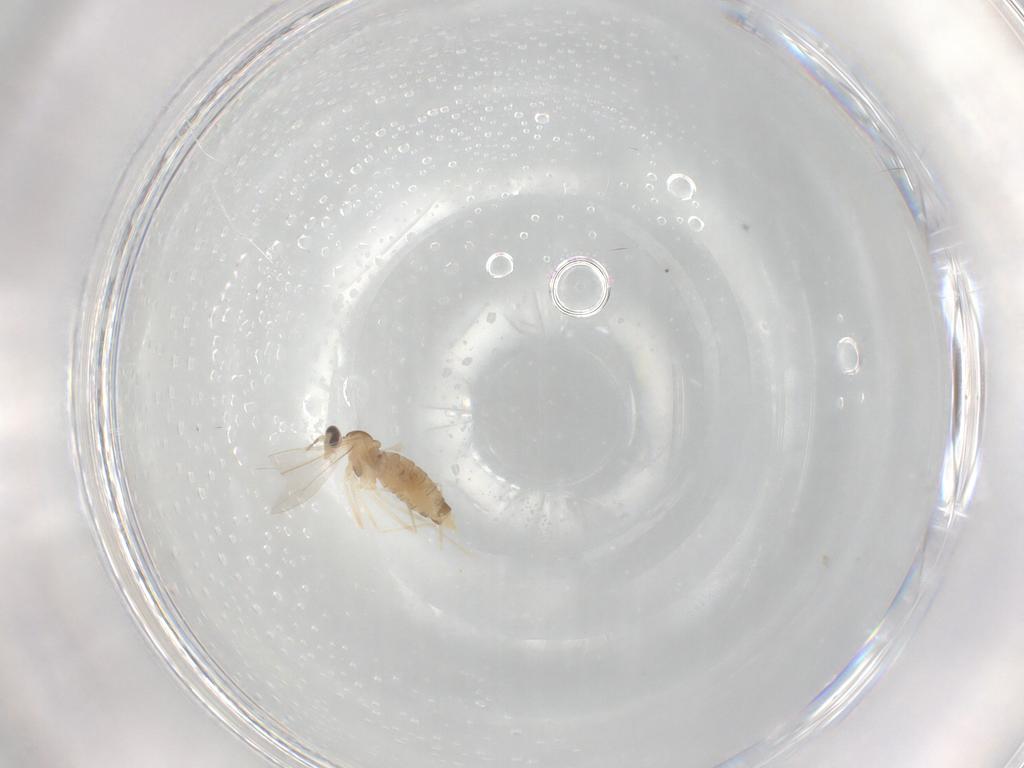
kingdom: Animalia
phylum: Arthropoda
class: Insecta
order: Diptera
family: Cecidomyiidae
